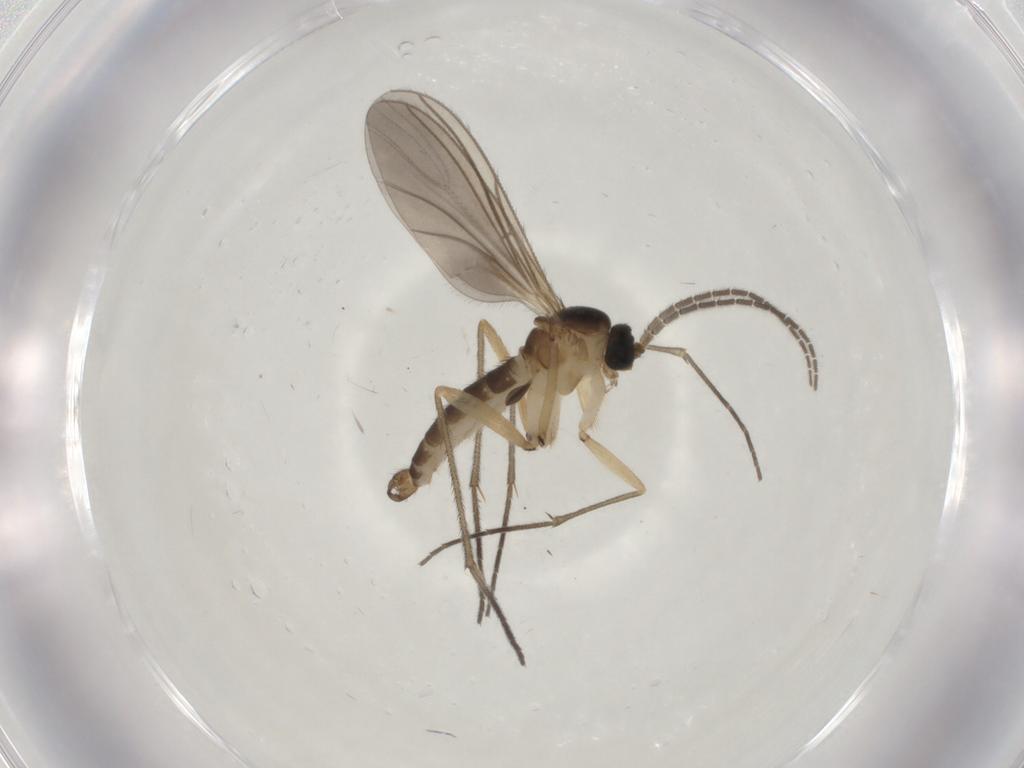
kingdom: Animalia
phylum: Arthropoda
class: Insecta
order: Diptera
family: Sciaridae
